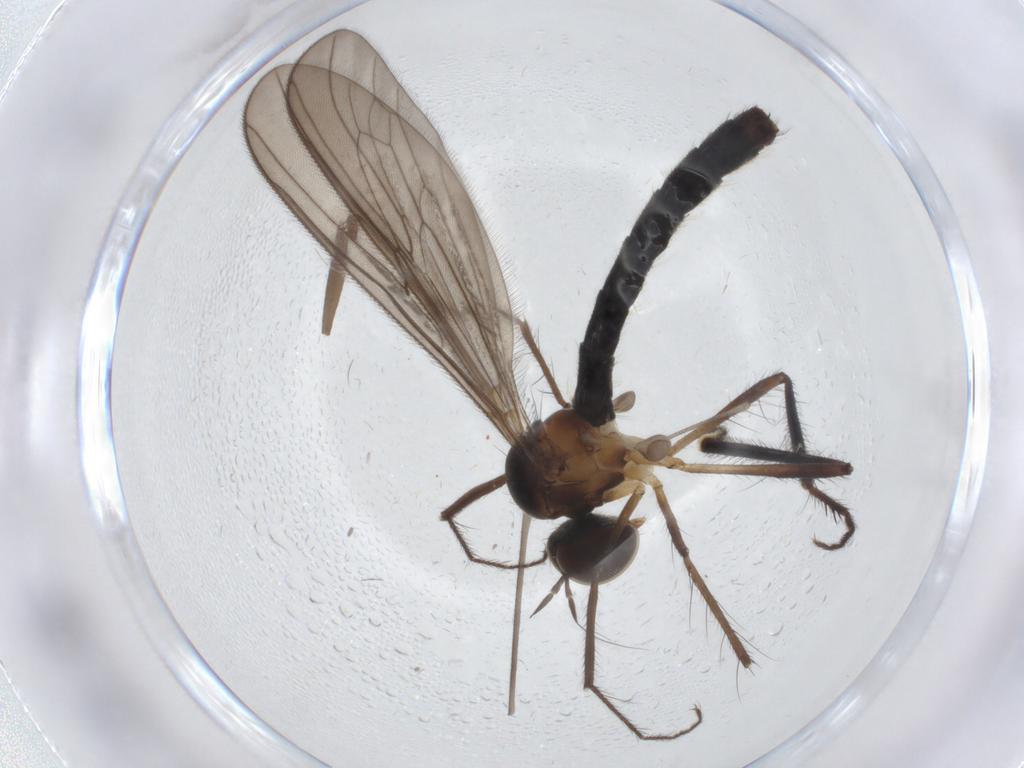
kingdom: Animalia
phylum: Arthropoda
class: Insecta
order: Diptera
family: Hybotidae
